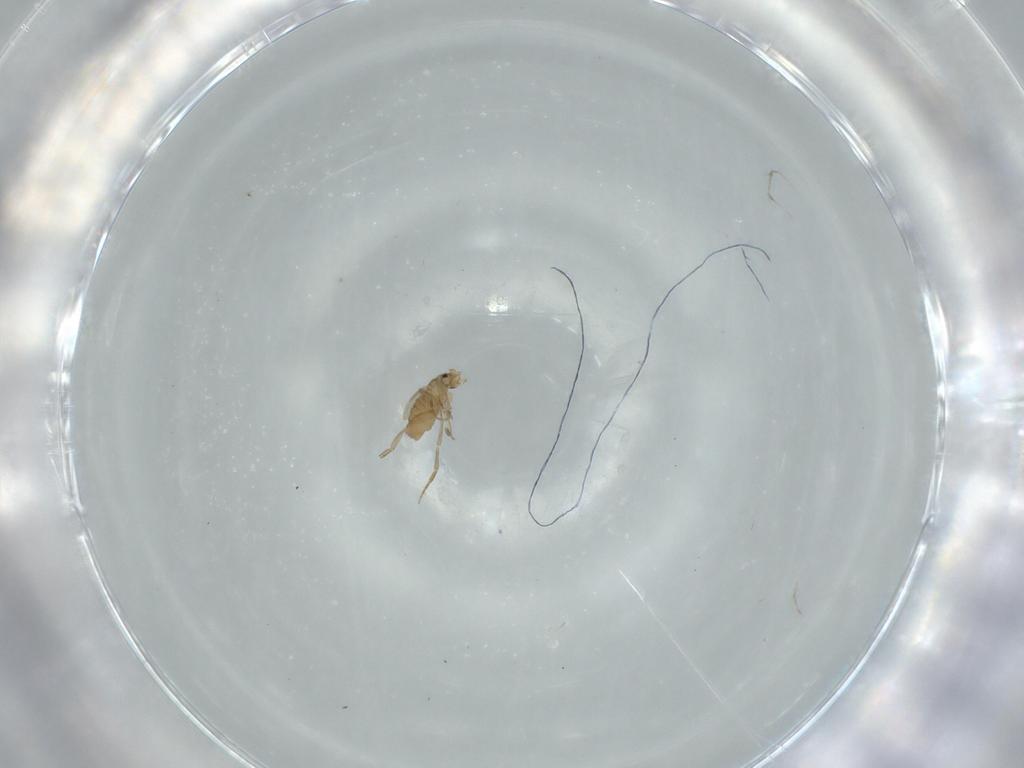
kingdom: Animalia
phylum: Arthropoda
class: Insecta
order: Diptera
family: Phoridae
